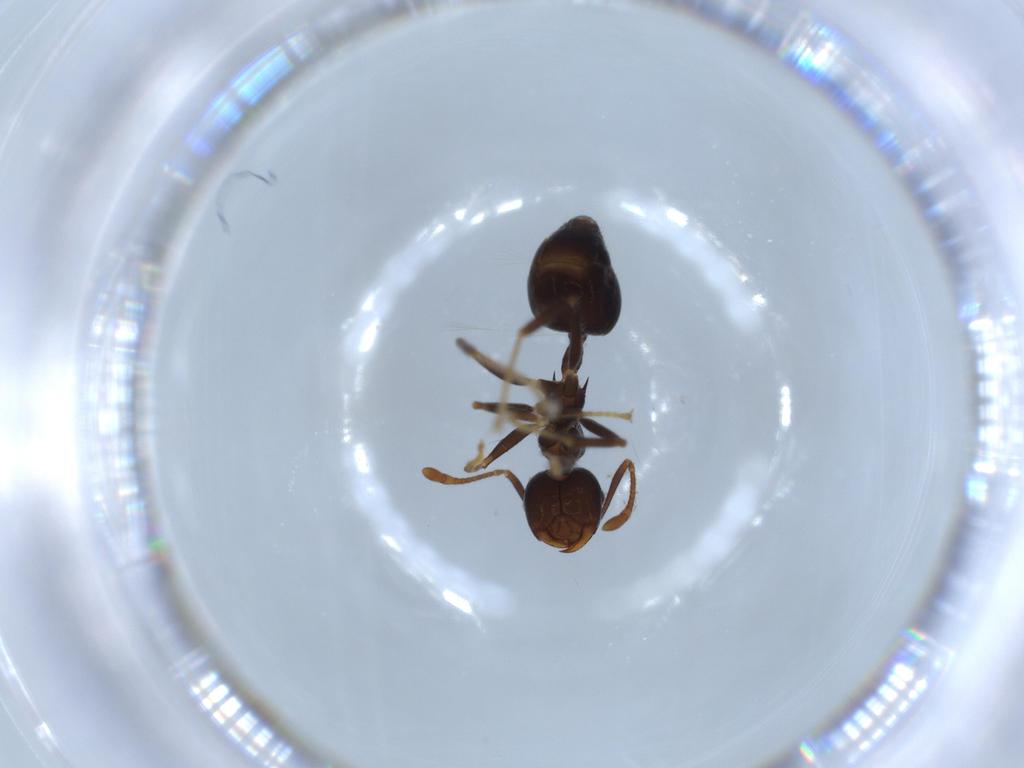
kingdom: Animalia
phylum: Arthropoda
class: Insecta
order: Hymenoptera
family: Formicidae
